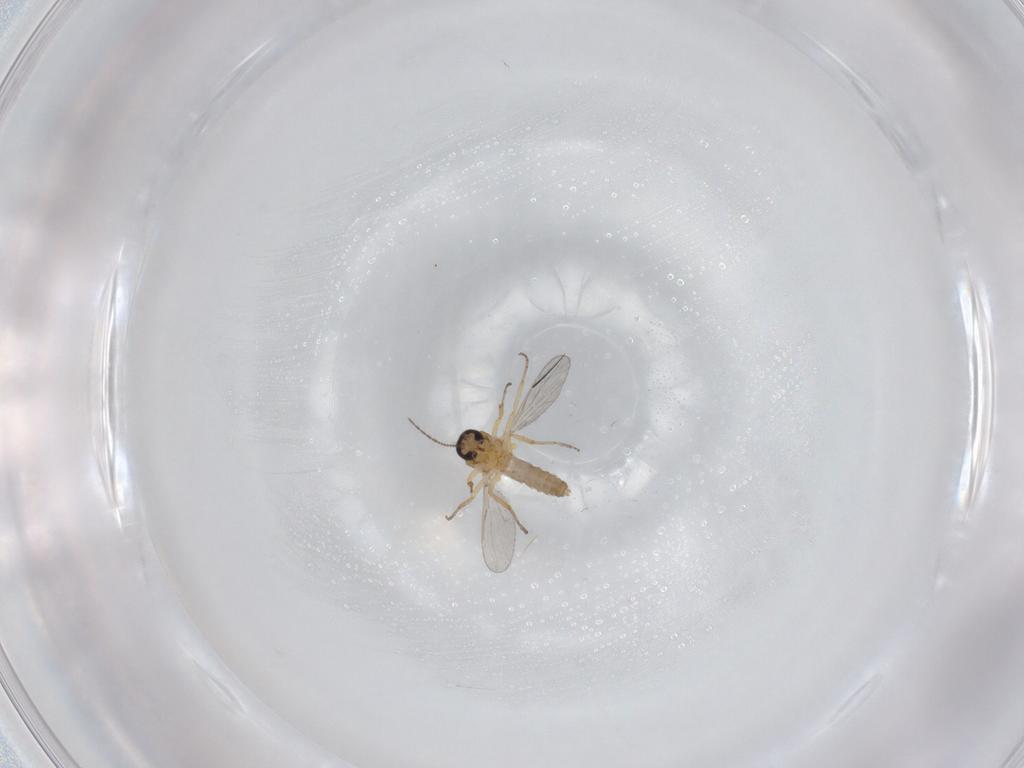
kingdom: Animalia
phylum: Arthropoda
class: Insecta
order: Diptera
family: Ceratopogonidae
